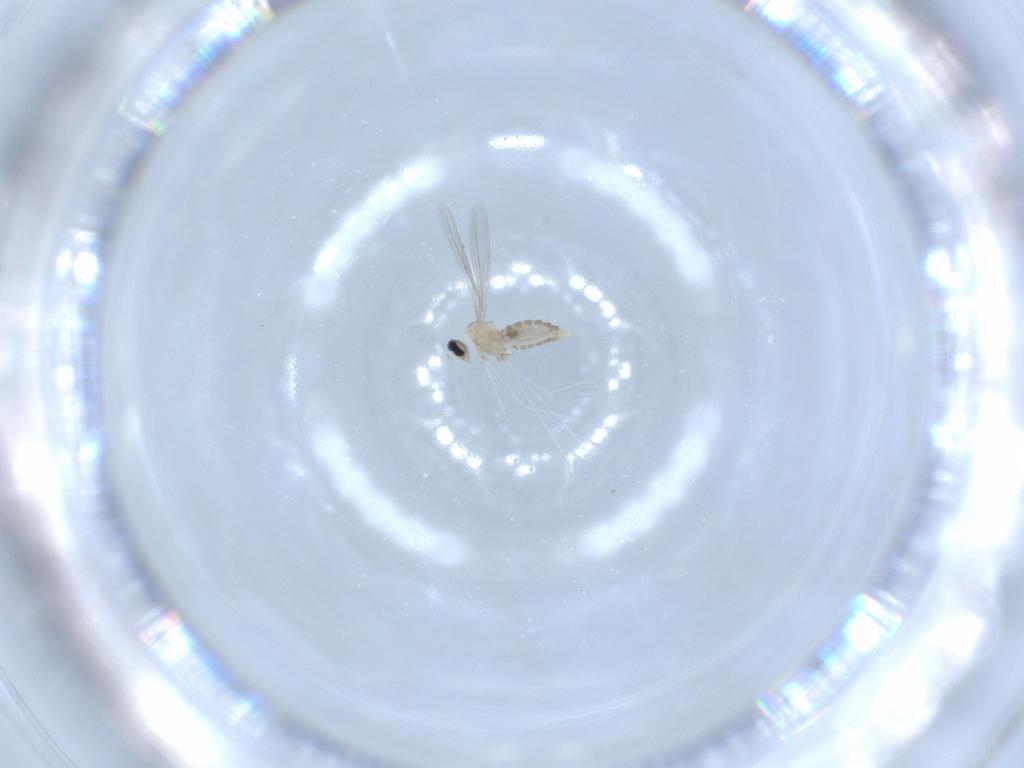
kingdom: Animalia
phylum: Arthropoda
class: Insecta
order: Diptera
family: Cecidomyiidae
